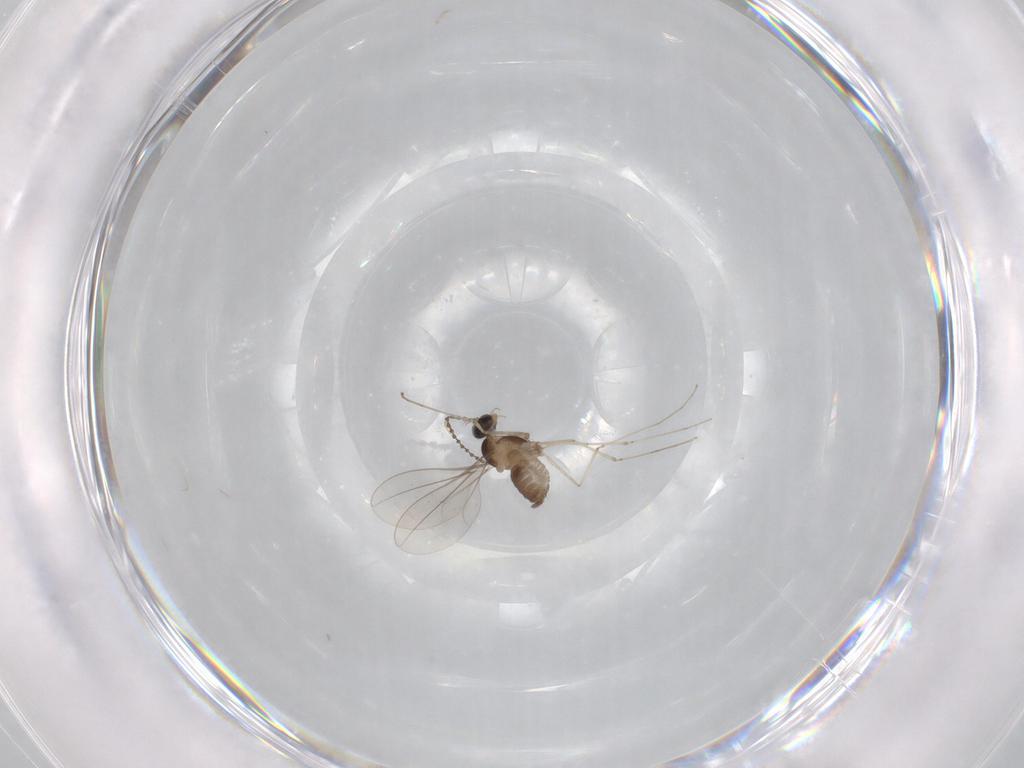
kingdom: Animalia
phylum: Arthropoda
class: Insecta
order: Diptera
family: Cecidomyiidae
